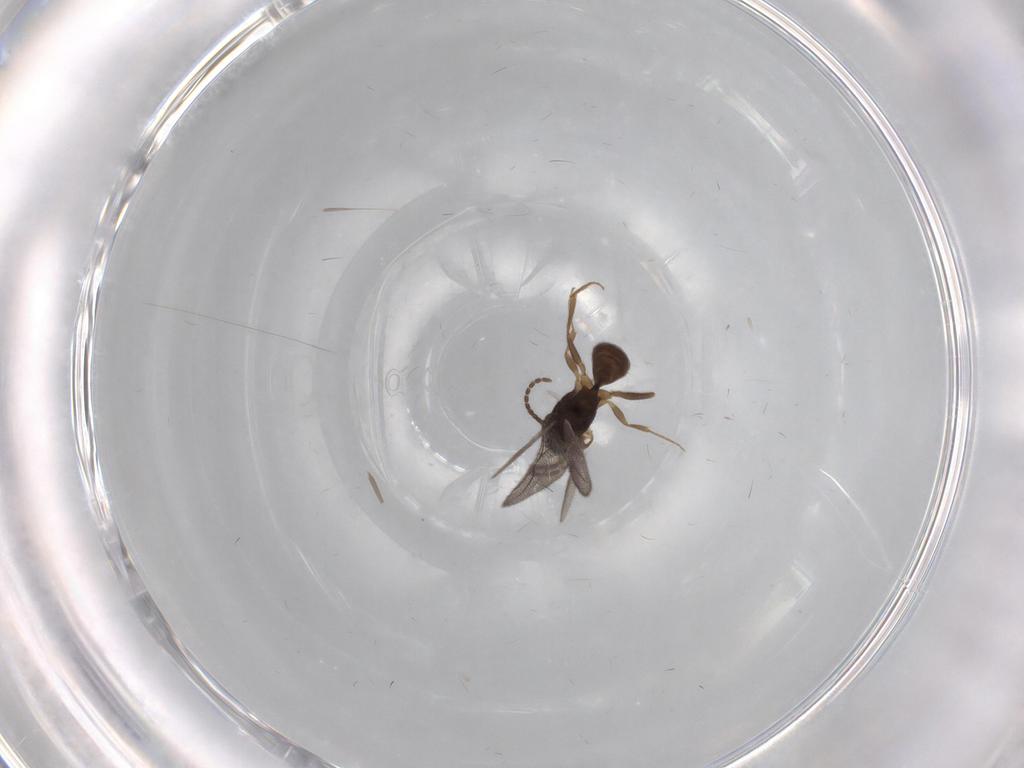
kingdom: Animalia
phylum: Arthropoda
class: Insecta
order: Hymenoptera
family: Bethylidae
